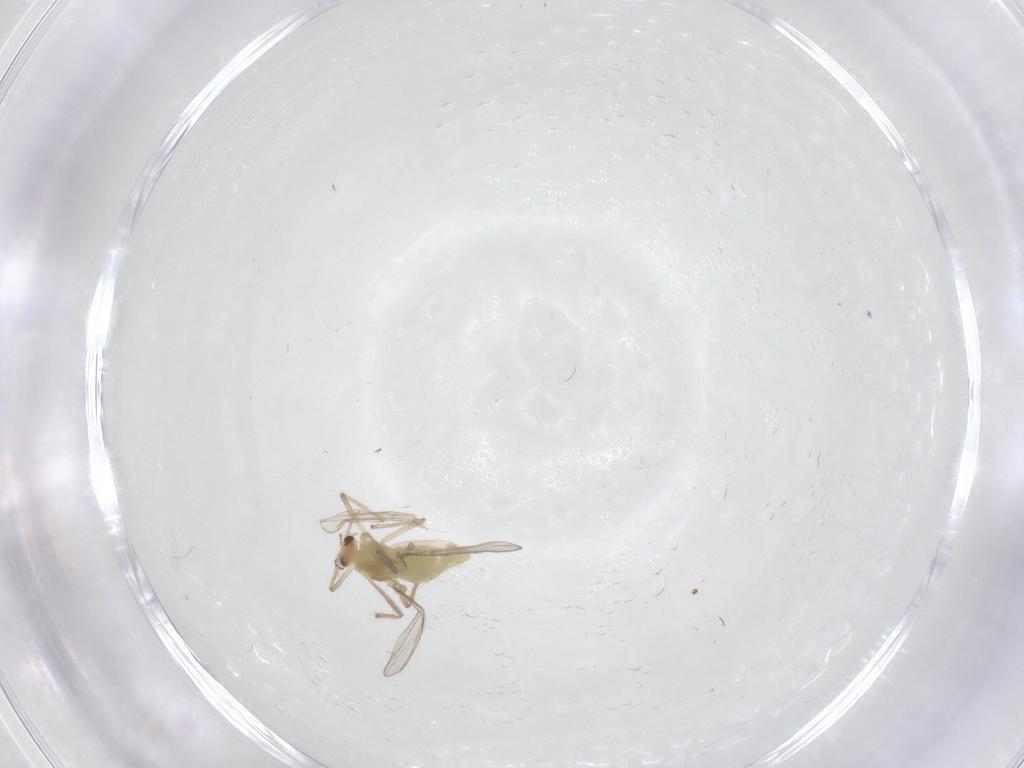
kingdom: Animalia
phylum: Arthropoda
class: Insecta
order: Diptera
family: Chironomidae
